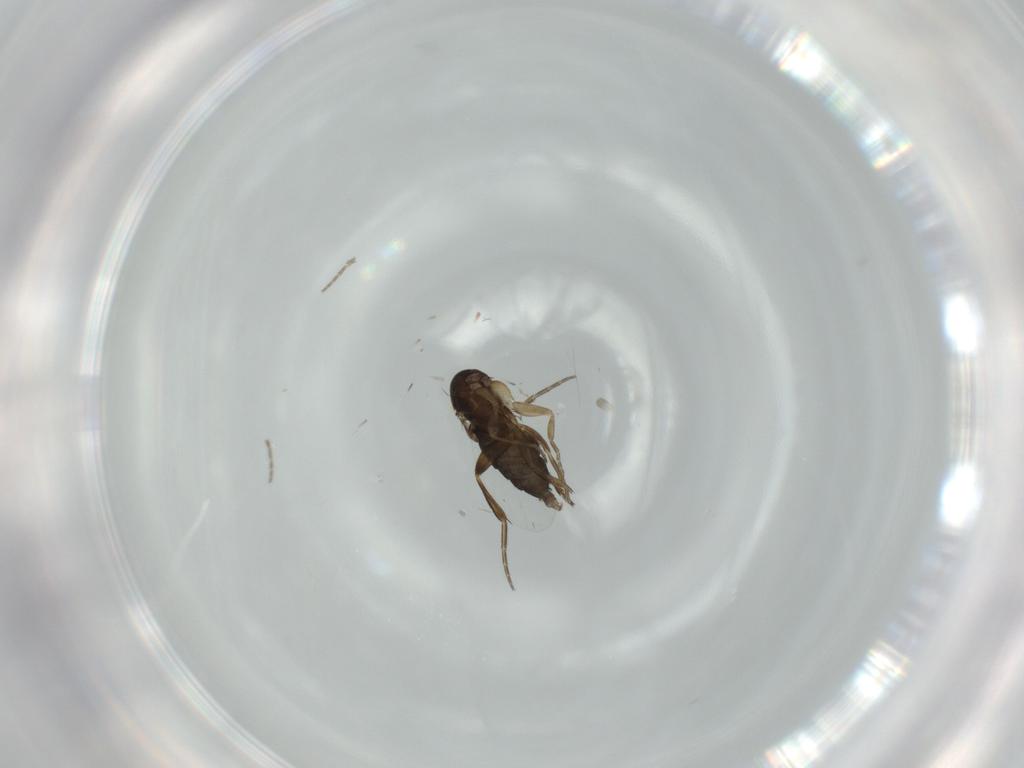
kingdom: Animalia
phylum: Arthropoda
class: Insecta
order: Diptera
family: Phoridae
